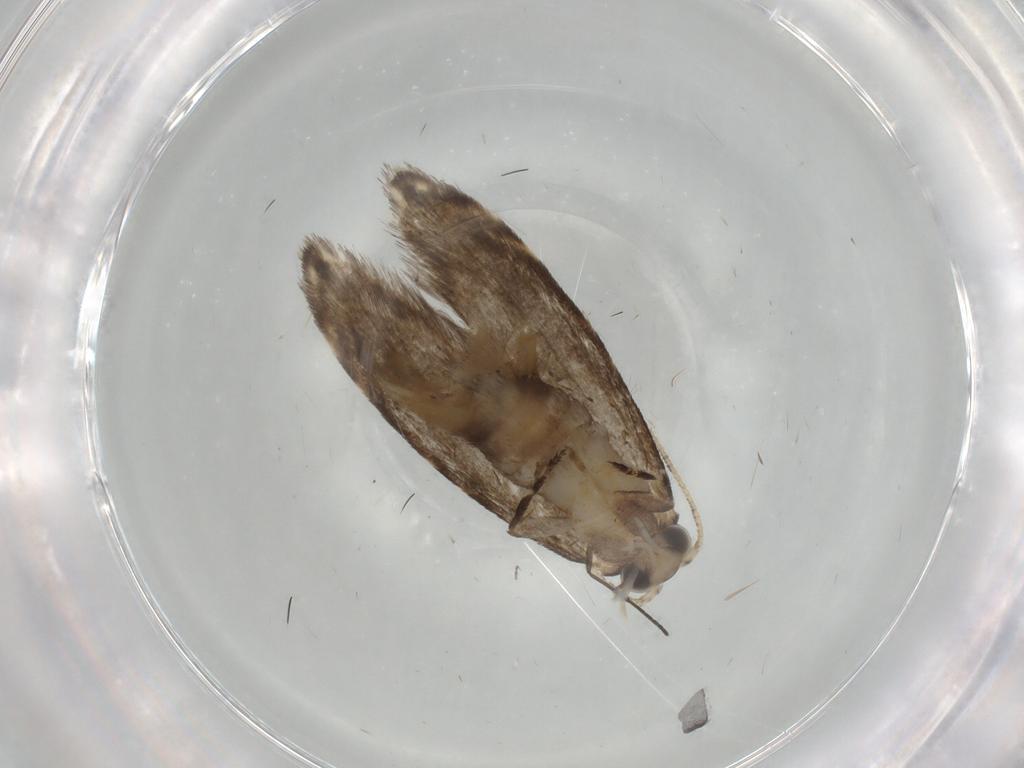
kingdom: Animalia
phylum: Arthropoda
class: Insecta
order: Lepidoptera
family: Tineidae
